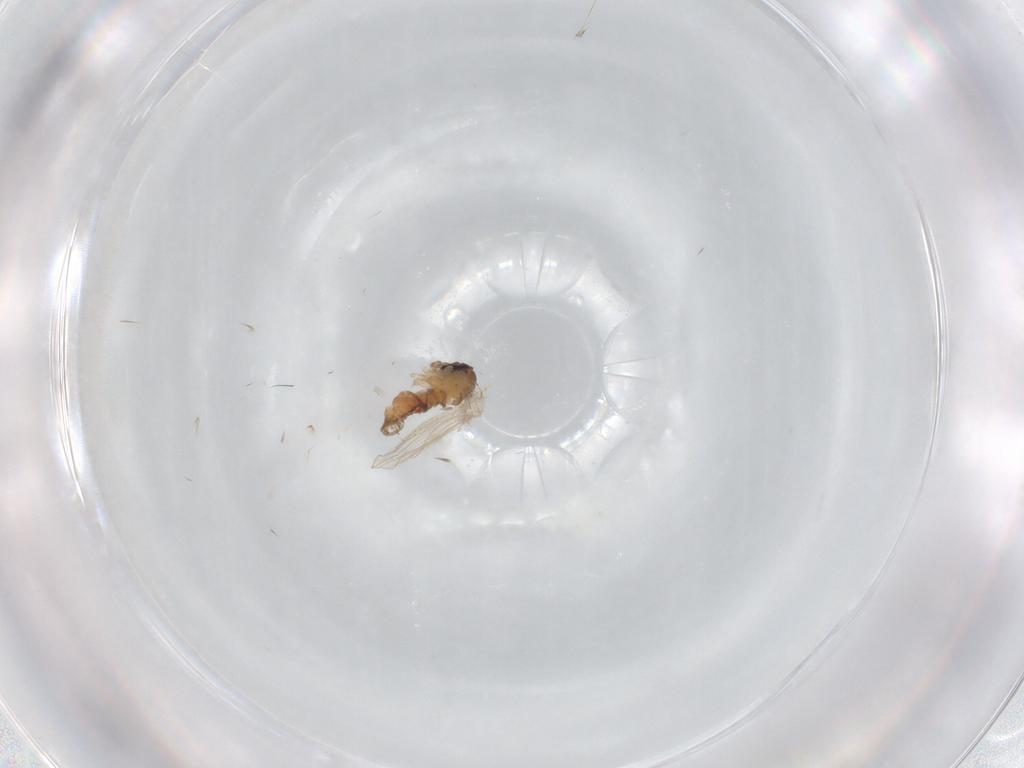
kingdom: Animalia
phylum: Arthropoda
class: Insecta
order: Diptera
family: Psychodidae
